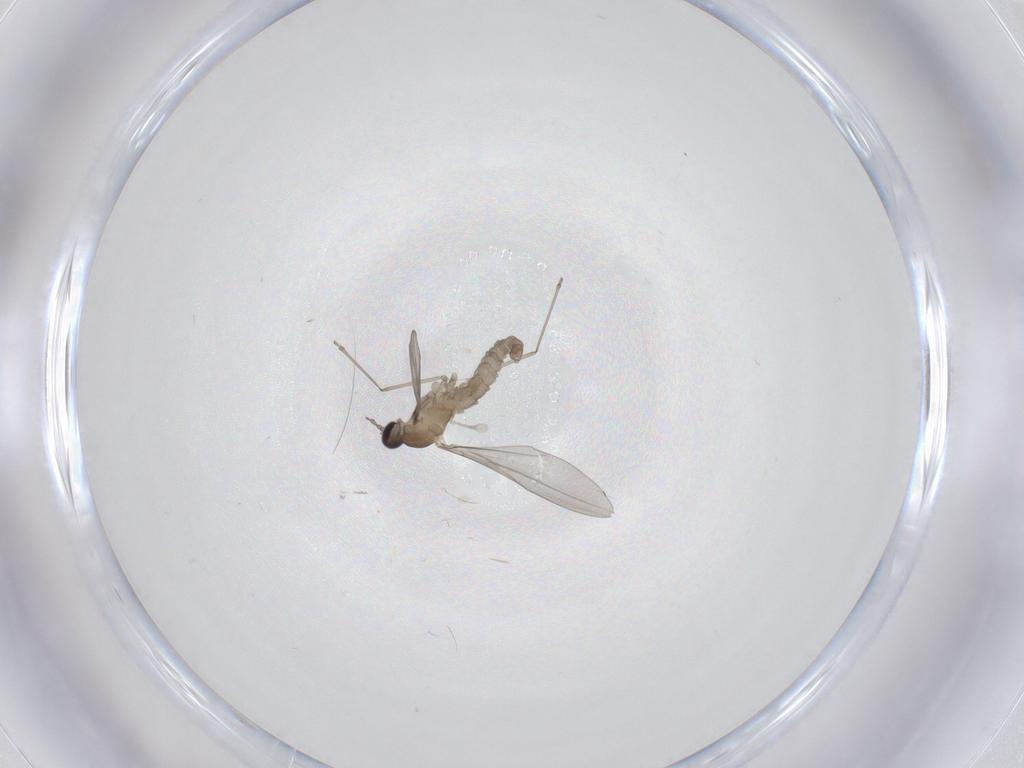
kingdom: Animalia
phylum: Arthropoda
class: Insecta
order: Diptera
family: Cecidomyiidae
